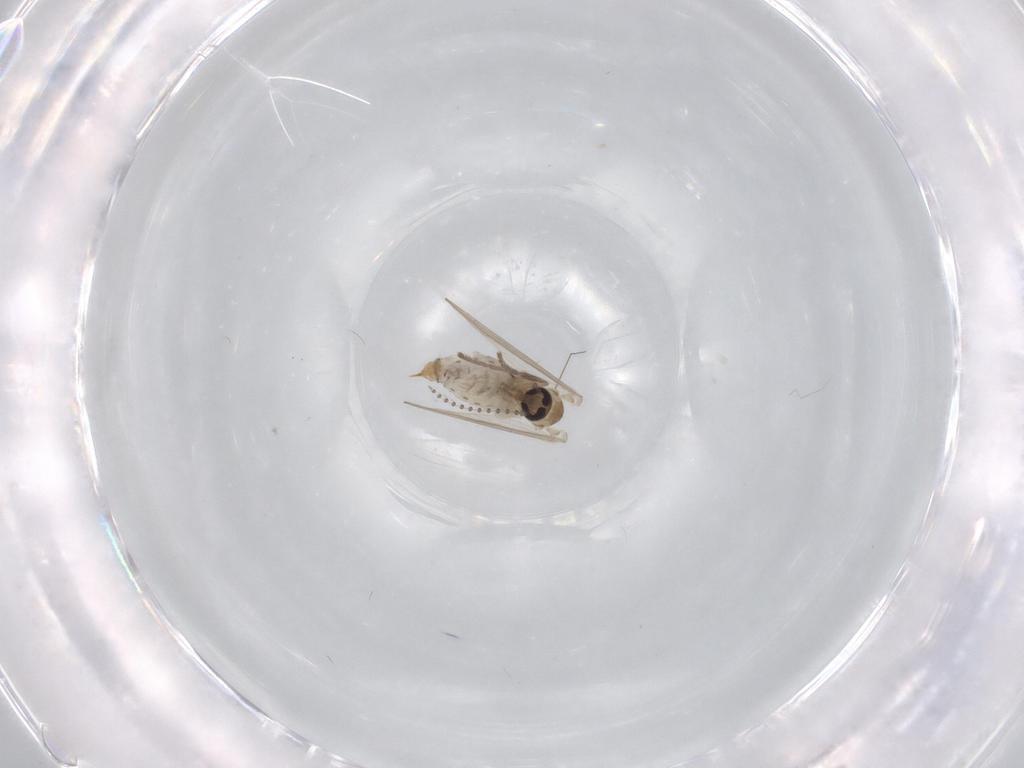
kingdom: Animalia
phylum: Arthropoda
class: Insecta
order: Diptera
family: Psychodidae
